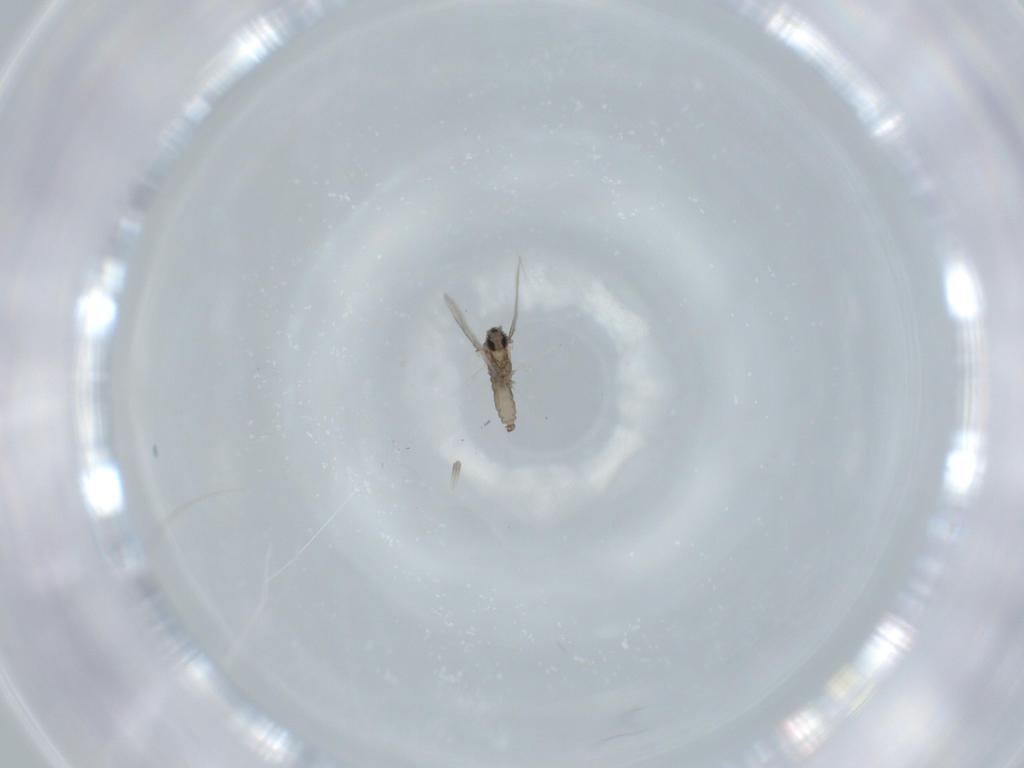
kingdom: Animalia
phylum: Arthropoda
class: Insecta
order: Diptera
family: Cecidomyiidae
